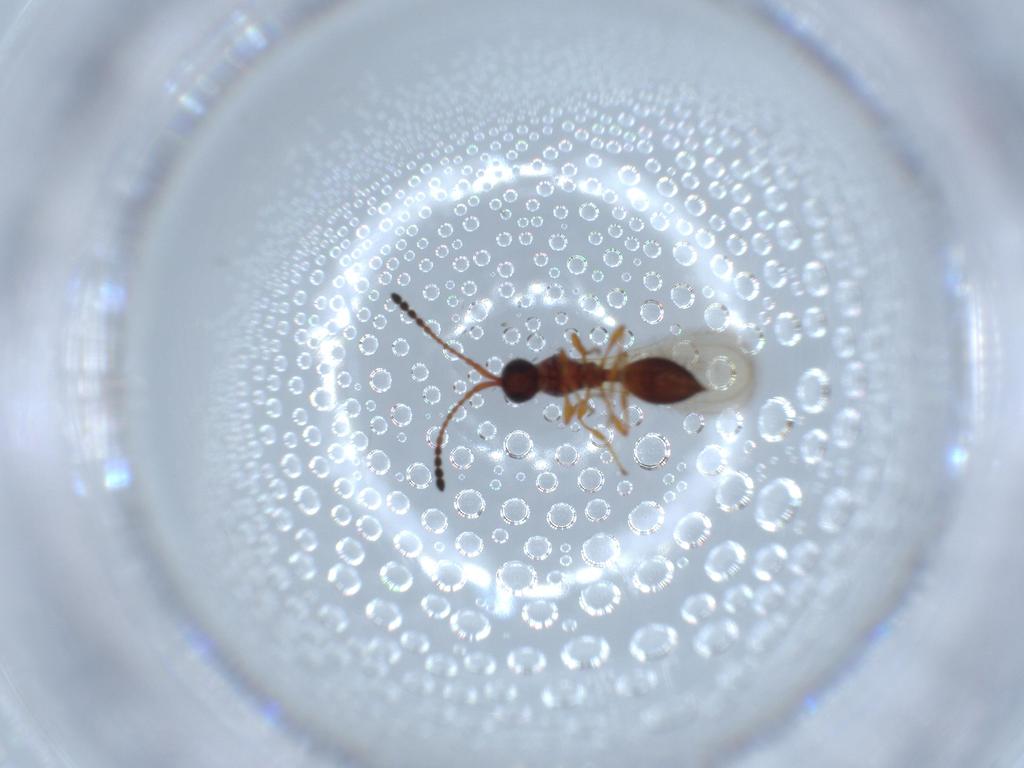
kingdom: Animalia
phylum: Arthropoda
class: Insecta
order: Hymenoptera
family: Diapriidae
